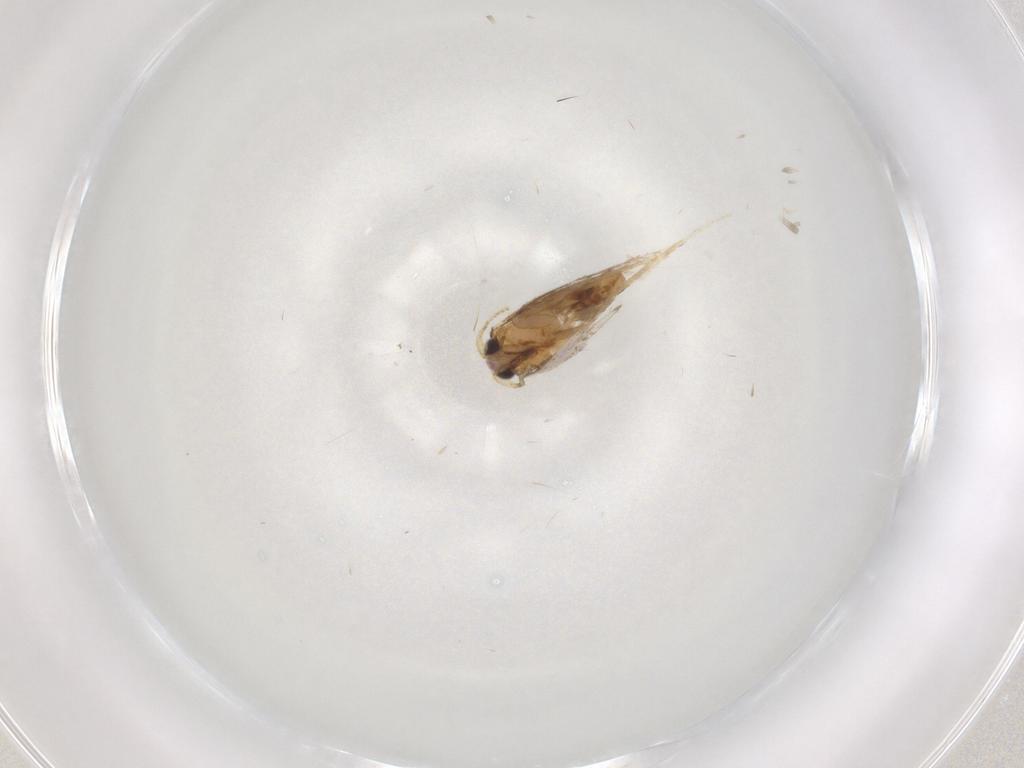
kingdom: Animalia
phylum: Arthropoda
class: Insecta
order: Lepidoptera
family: Nepticulidae
